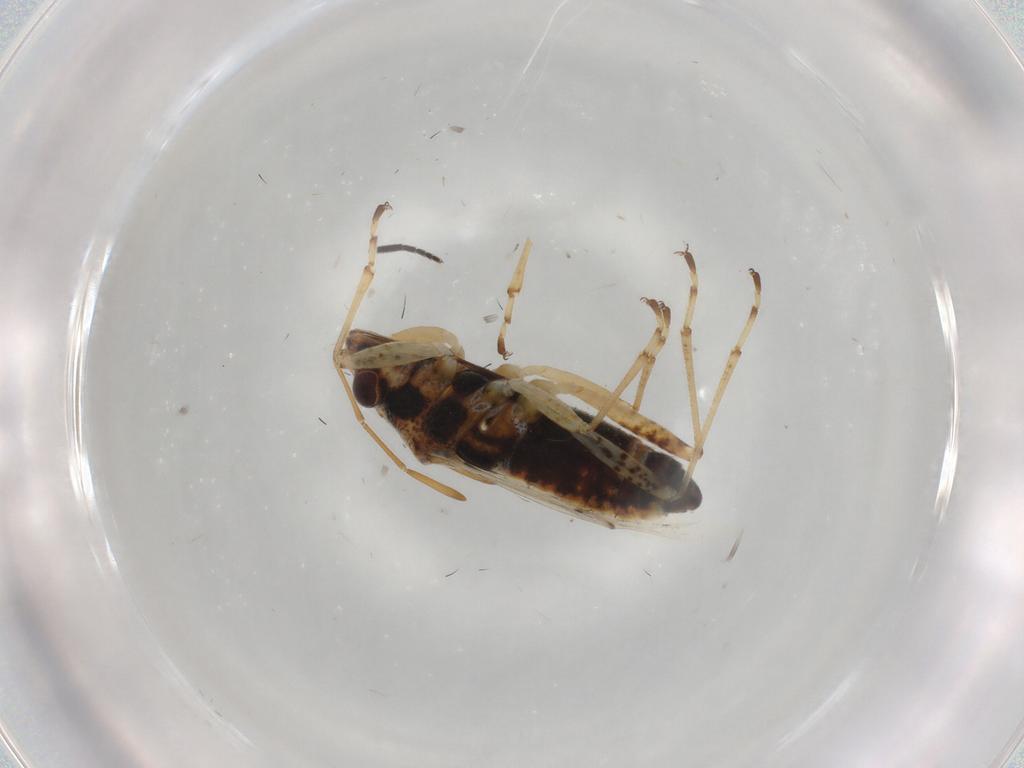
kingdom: Animalia
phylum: Arthropoda
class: Insecta
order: Hemiptera
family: Lygaeidae
